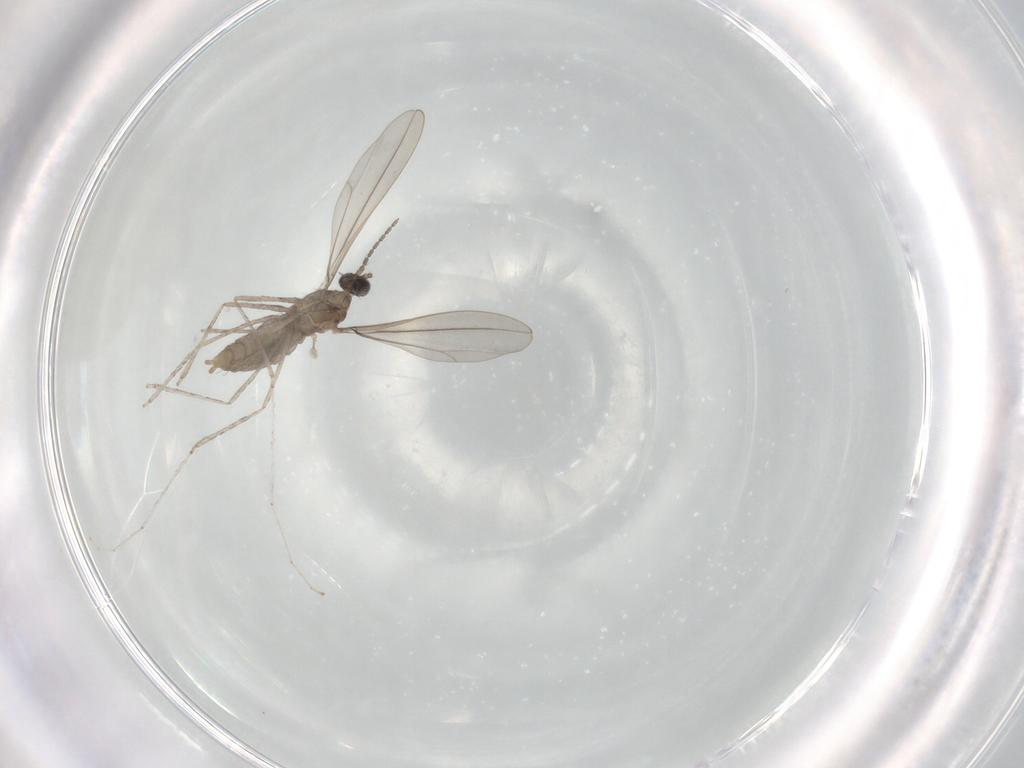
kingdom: Animalia
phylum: Arthropoda
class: Insecta
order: Diptera
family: Cecidomyiidae
